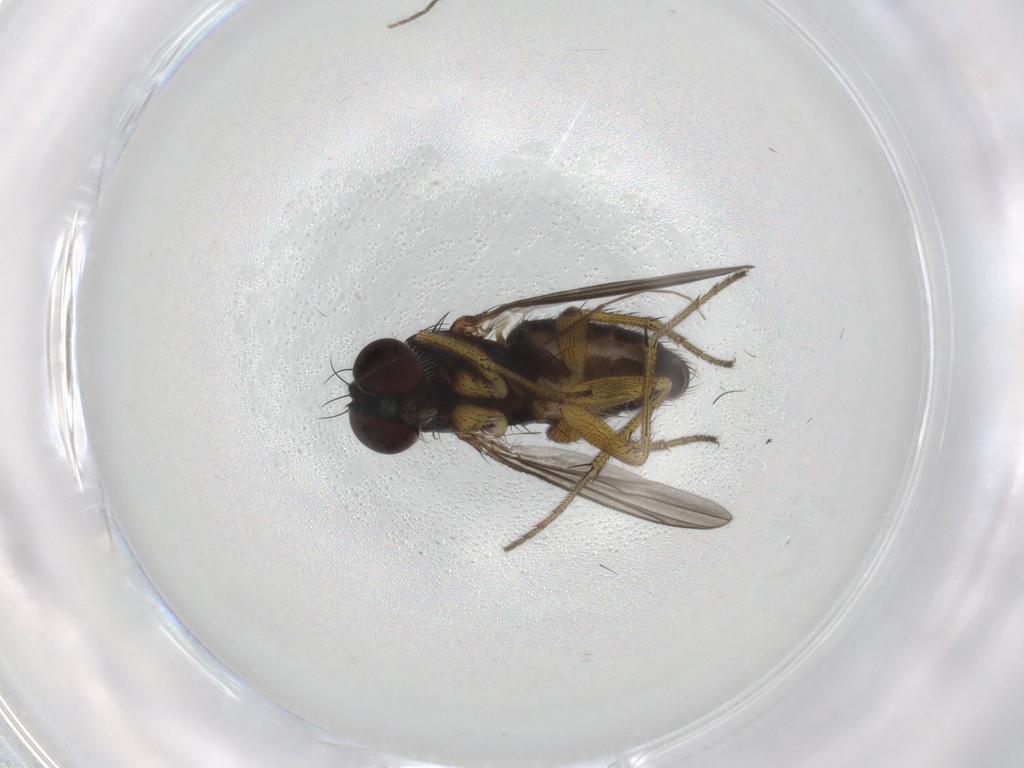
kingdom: Animalia
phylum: Arthropoda
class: Insecta
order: Diptera
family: Dolichopodidae
